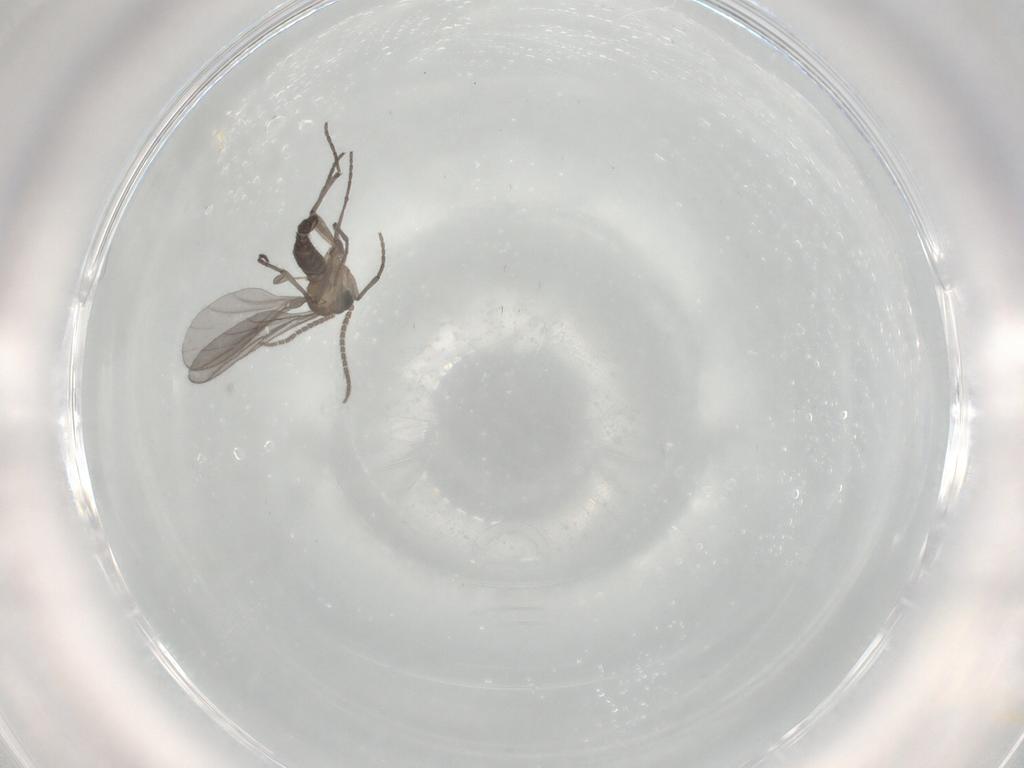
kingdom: Animalia
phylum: Arthropoda
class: Insecta
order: Diptera
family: Sciaridae
